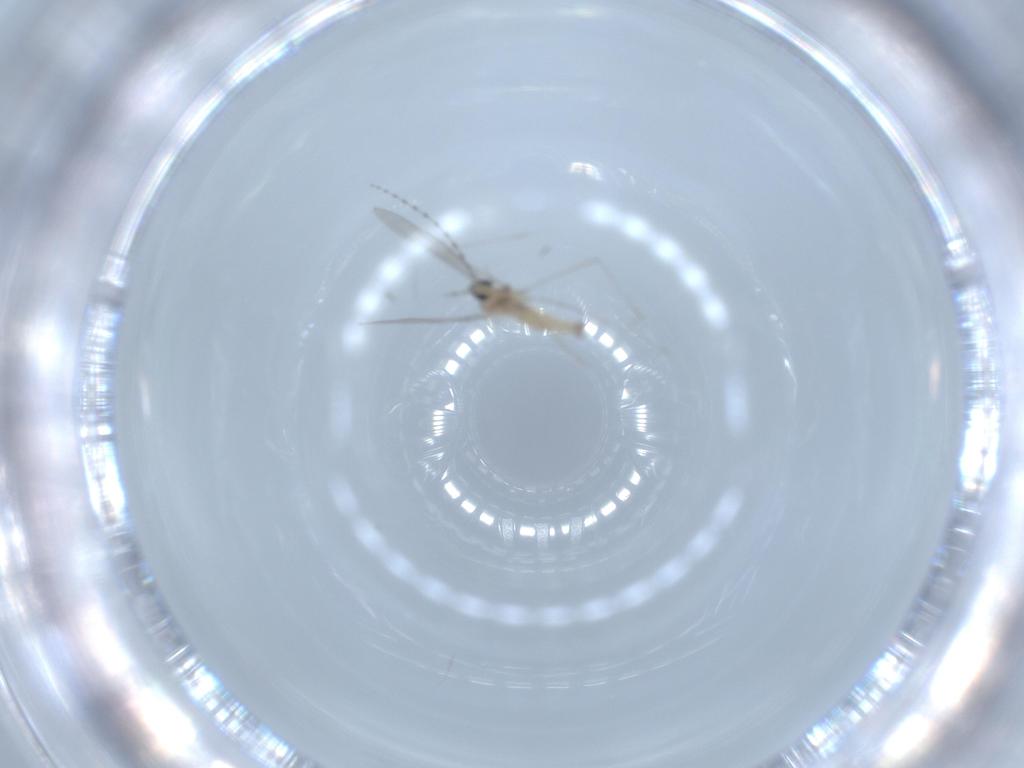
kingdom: Animalia
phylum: Arthropoda
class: Insecta
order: Diptera
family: Cecidomyiidae
